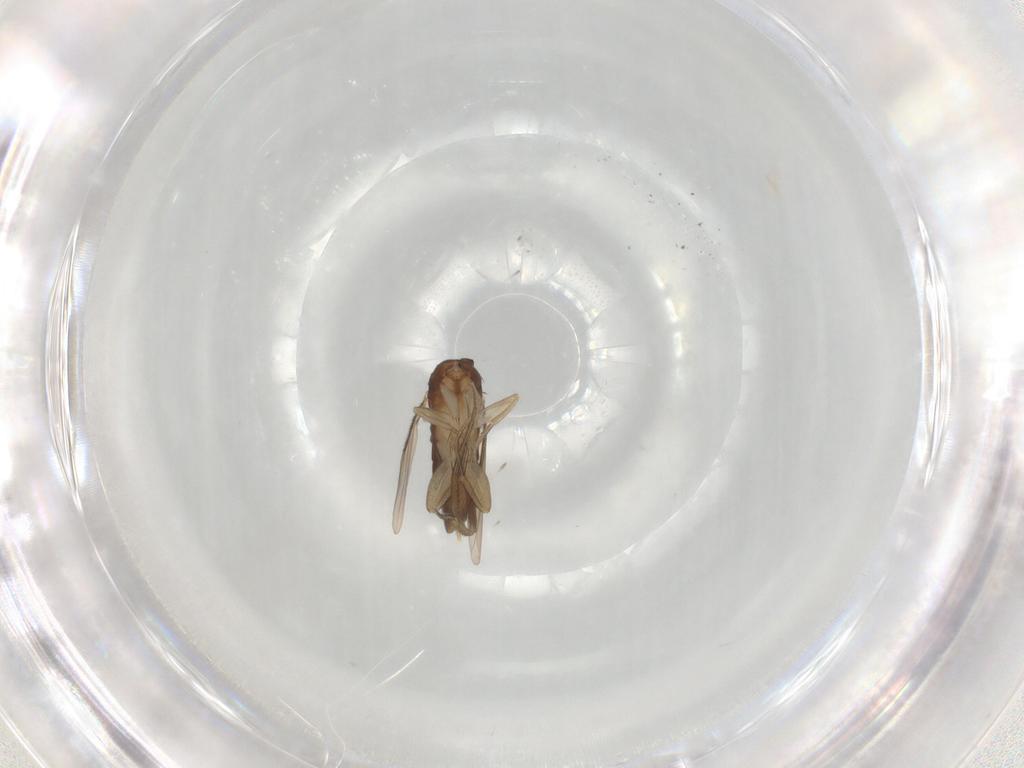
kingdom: Animalia
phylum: Arthropoda
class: Insecta
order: Diptera
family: Phoridae
